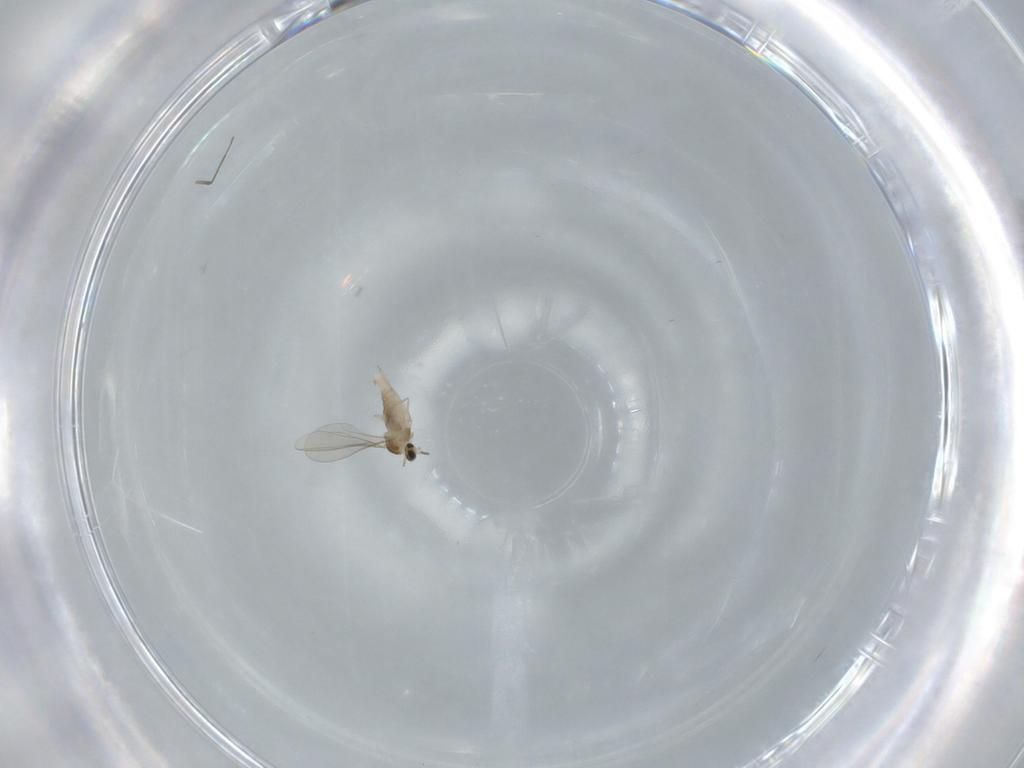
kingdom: Animalia
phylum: Arthropoda
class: Insecta
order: Diptera
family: Cecidomyiidae
